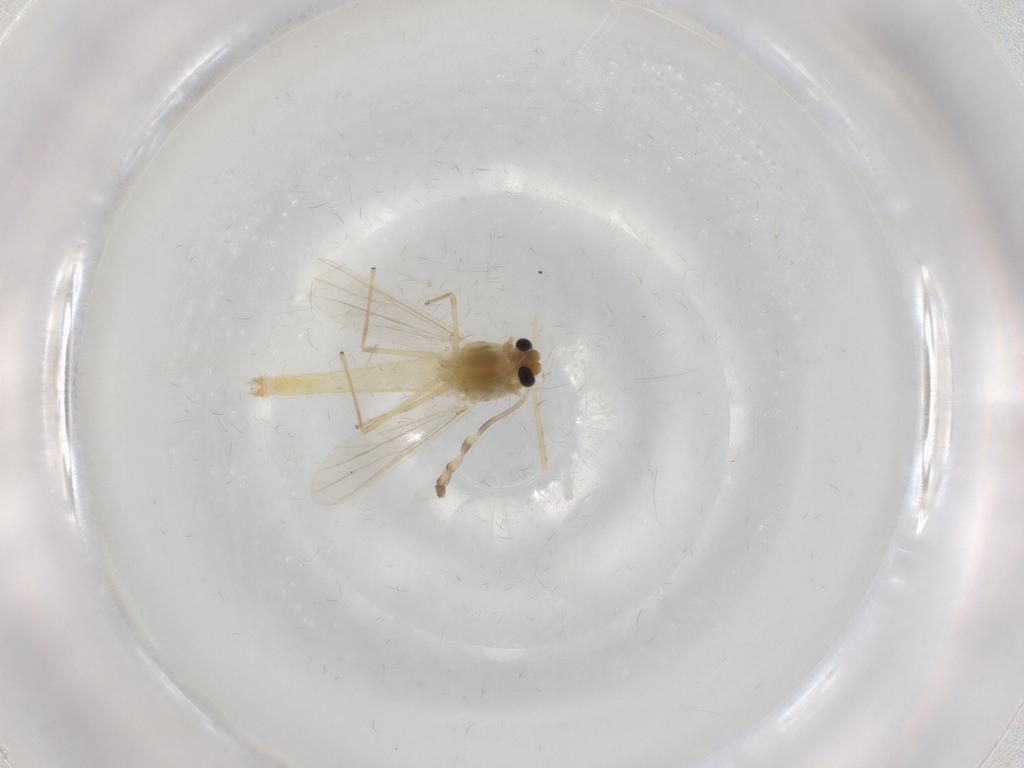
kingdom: Animalia
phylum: Arthropoda
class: Insecta
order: Diptera
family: Chironomidae
